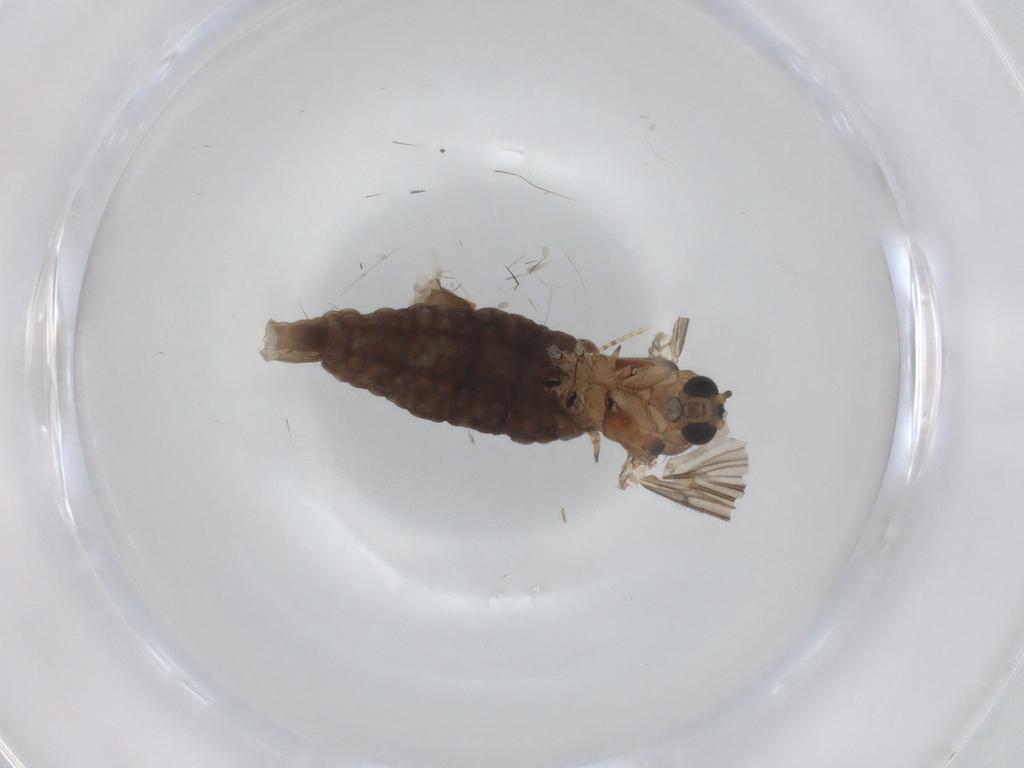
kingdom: Animalia
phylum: Arthropoda
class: Insecta
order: Diptera
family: Sciaridae
